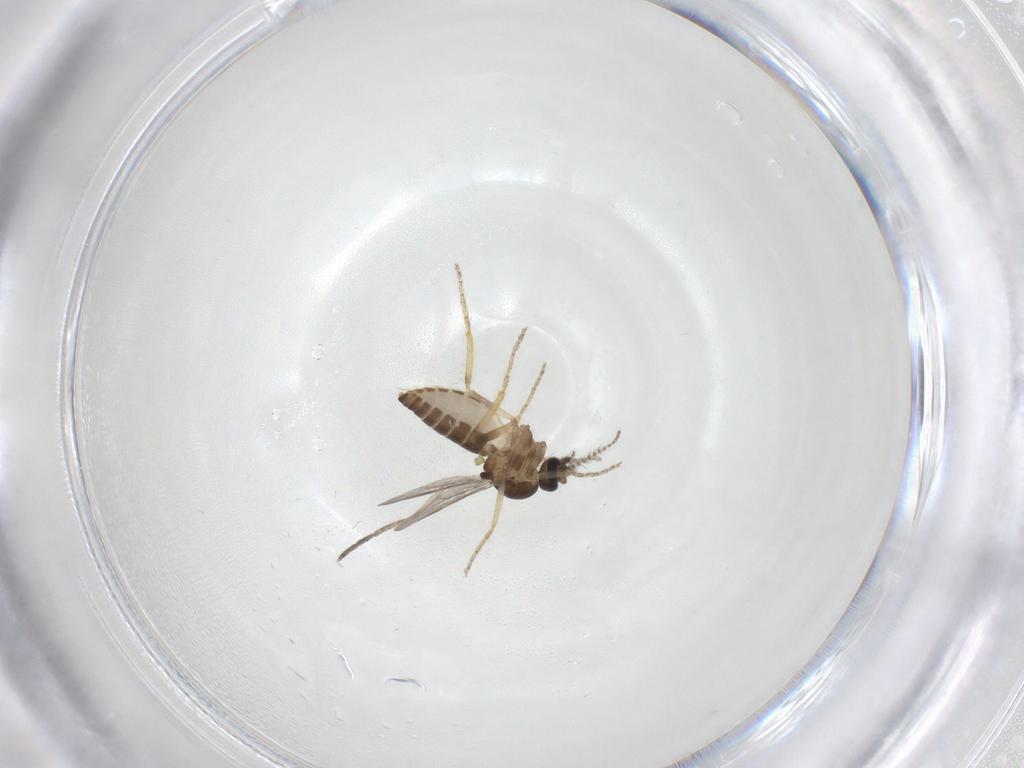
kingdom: Animalia
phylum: Arthropoda
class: Insecta
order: Diptera
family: Ceratopogonidae
